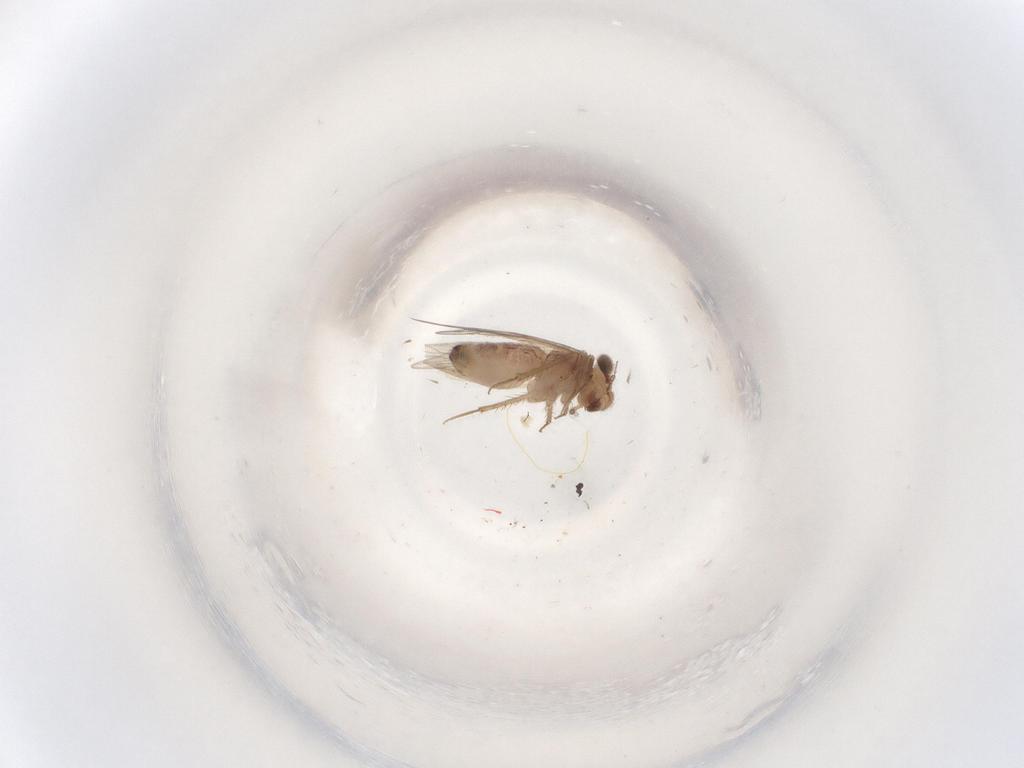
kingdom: Animalia
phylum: Arthropoda
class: Insecta
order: Psocodea
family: Lepidopsocidae
